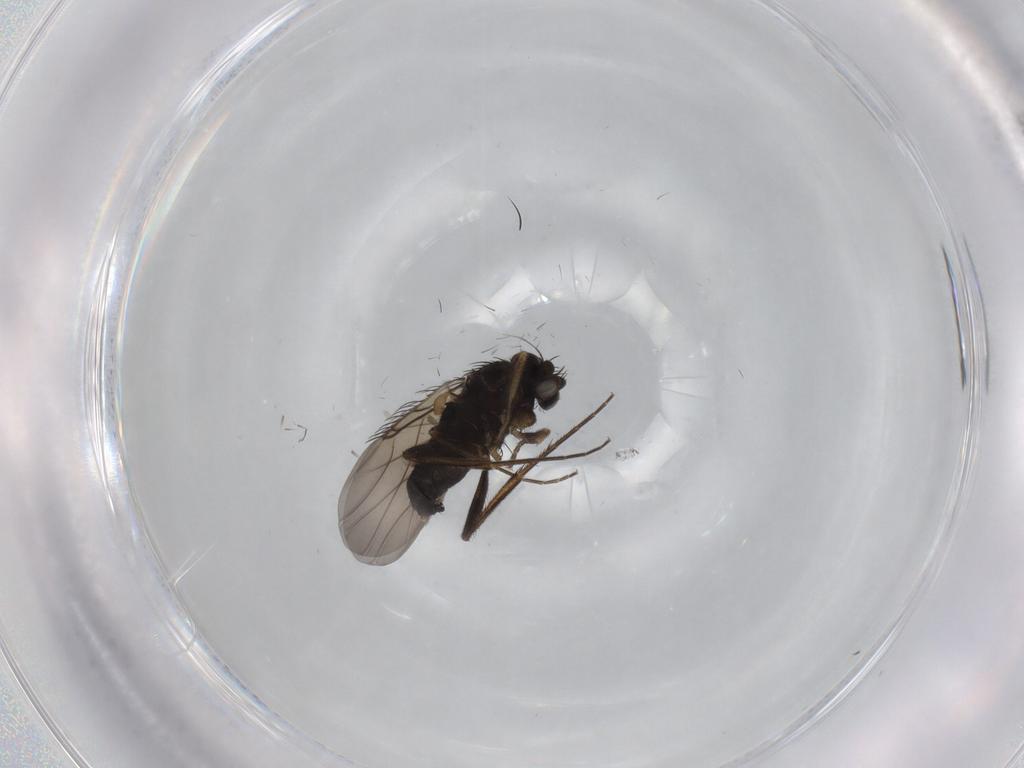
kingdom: Animalia
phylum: Arthropoda
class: Insecta
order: Diptera
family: Phoridae
